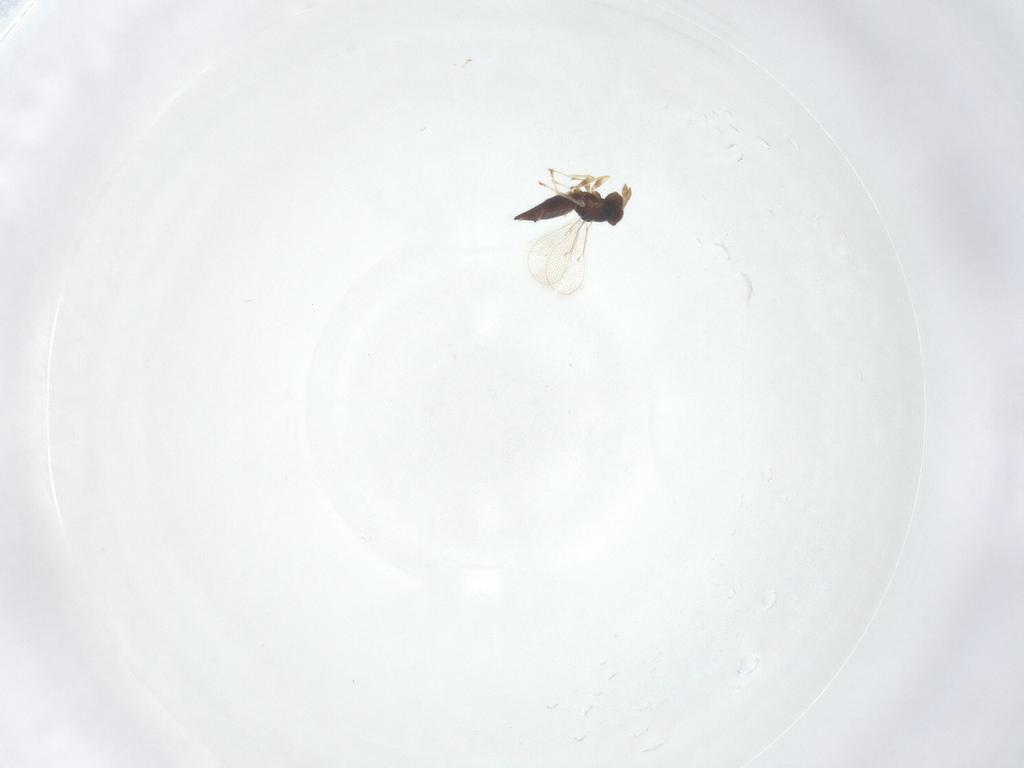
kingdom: Animalia
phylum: Arthropoda
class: Insecta
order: Hymenoptera
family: Eulophidae
